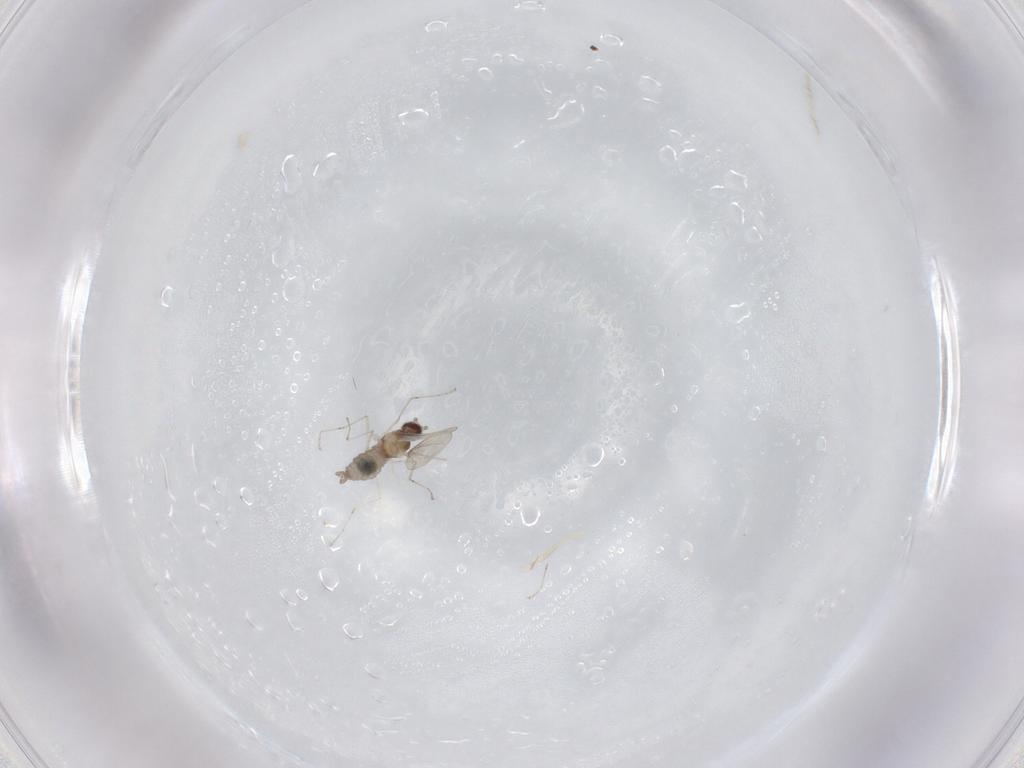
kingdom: Animalia
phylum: Arthropoda
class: Insecta
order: Diptera
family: Cecidomyiidae
